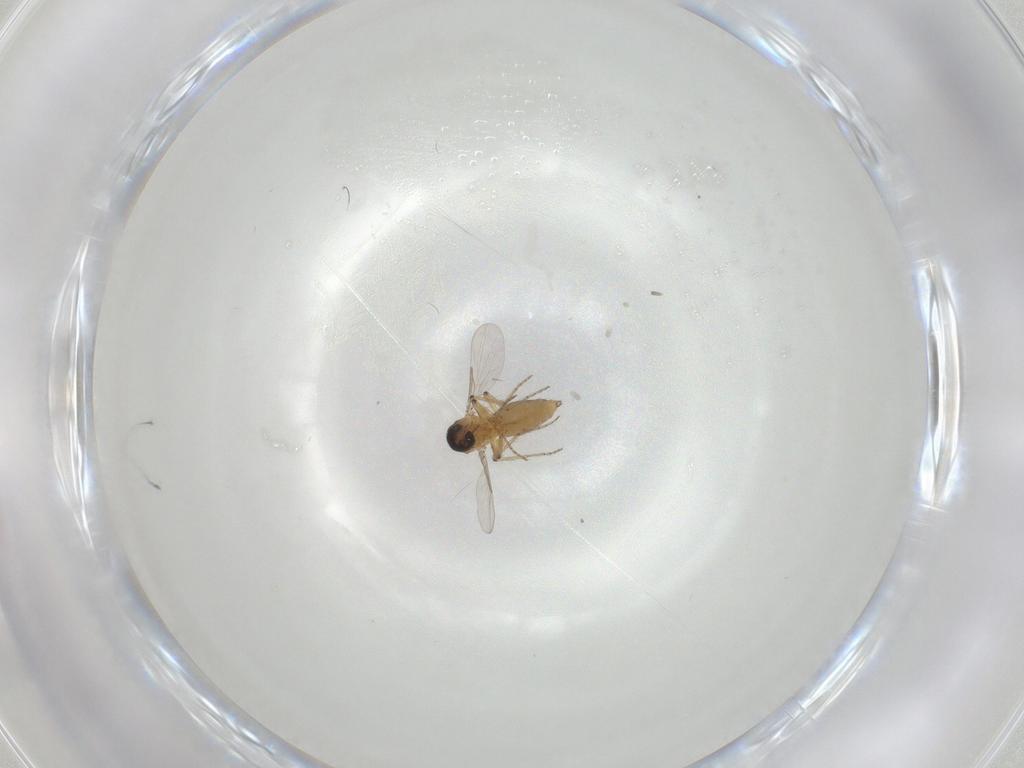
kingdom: Animalia
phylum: Arthropoda
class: Insecta
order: Diptera
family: Ceratopogonidae
